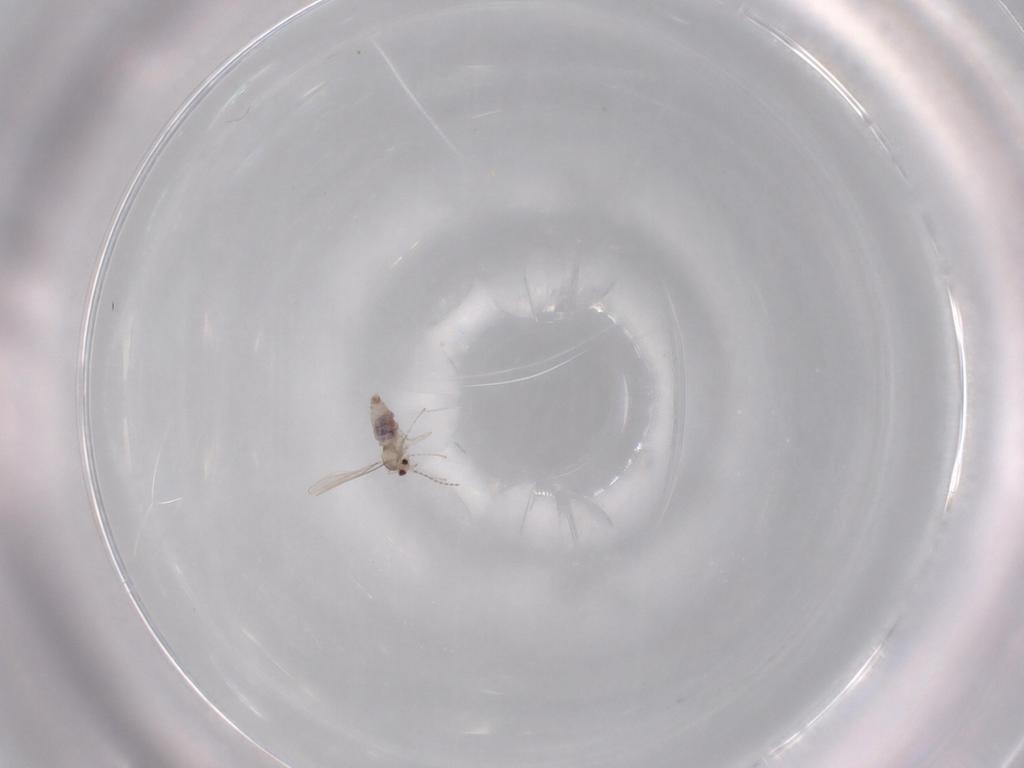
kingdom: Animalia
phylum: Arthropoda
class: Insecta
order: Diptera
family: Cecidomyiidae
